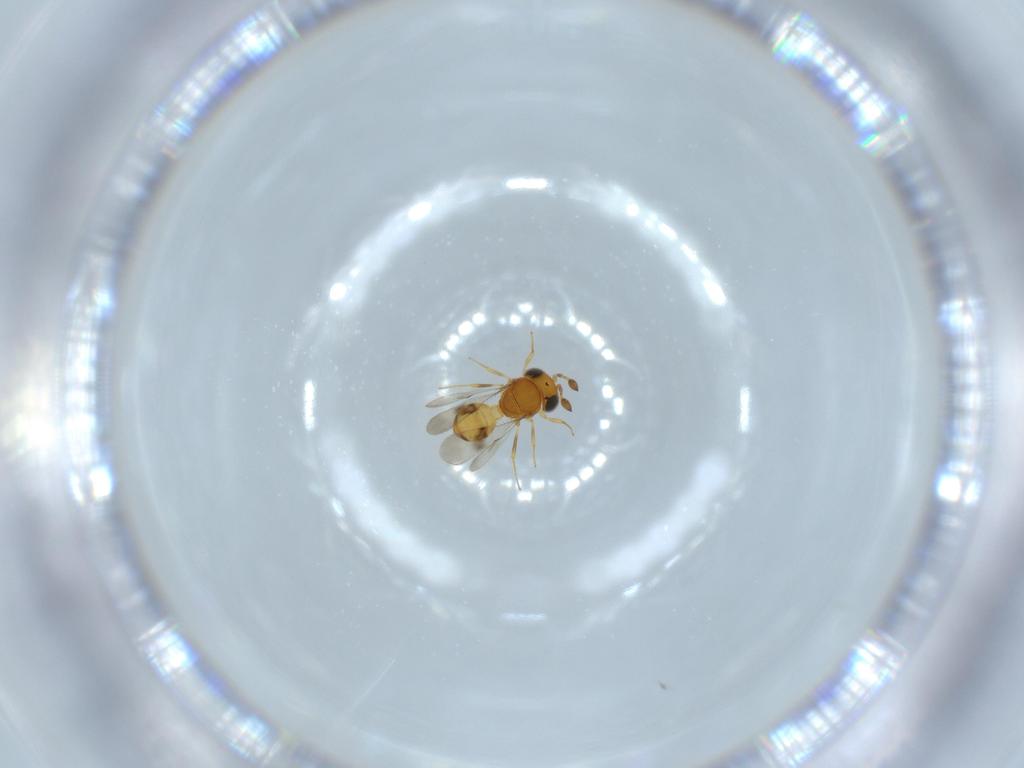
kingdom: Animalia
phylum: Arthropoda
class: Insecta
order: Hymenoptera
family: Scelionidae
